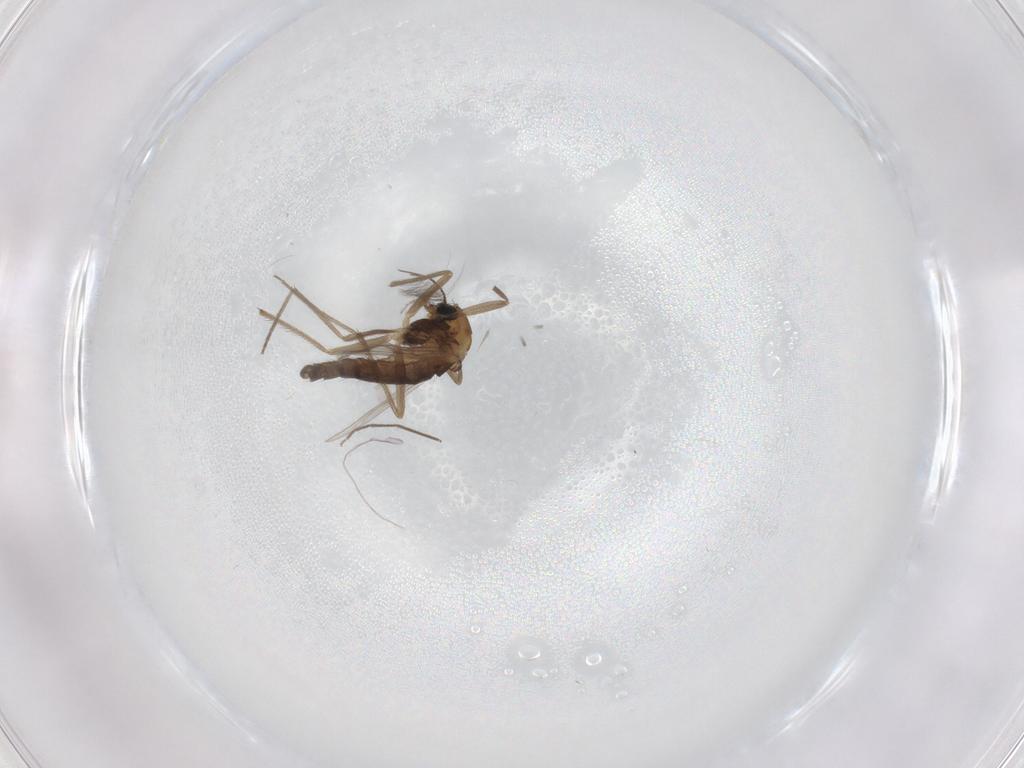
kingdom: Animalia
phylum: Arthropoda
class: Insecta
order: Diptera
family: Chironomidae
